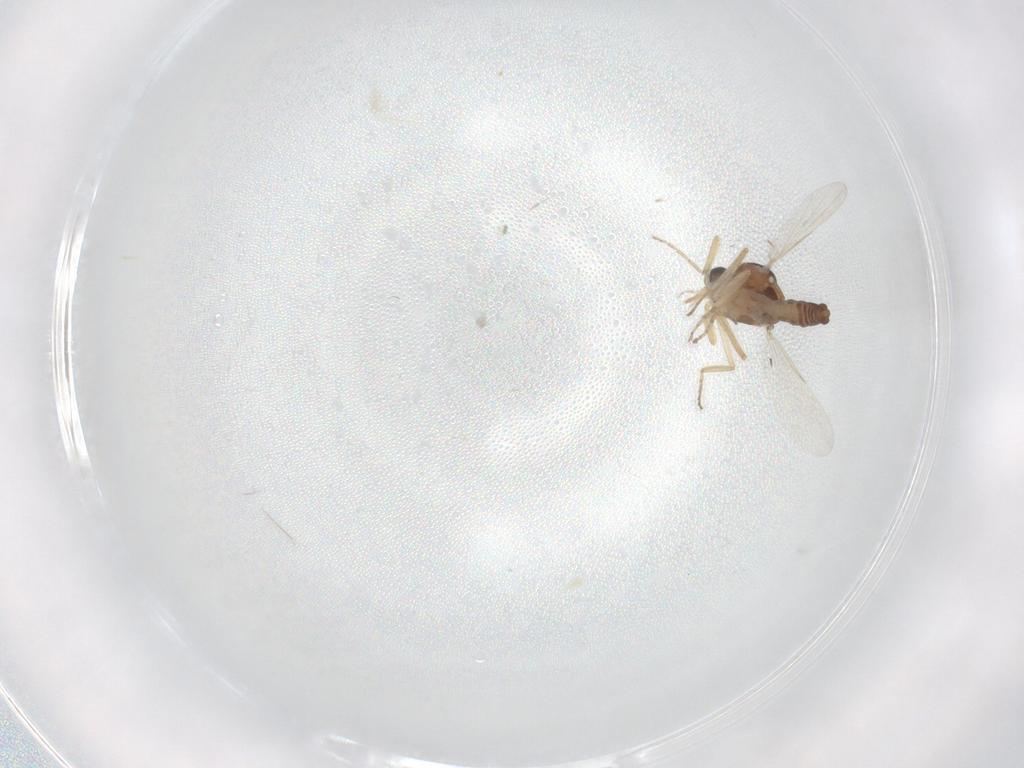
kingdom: Animalia
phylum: Arthropoda
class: Insecta
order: Diptera
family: Ceratopogonidae
